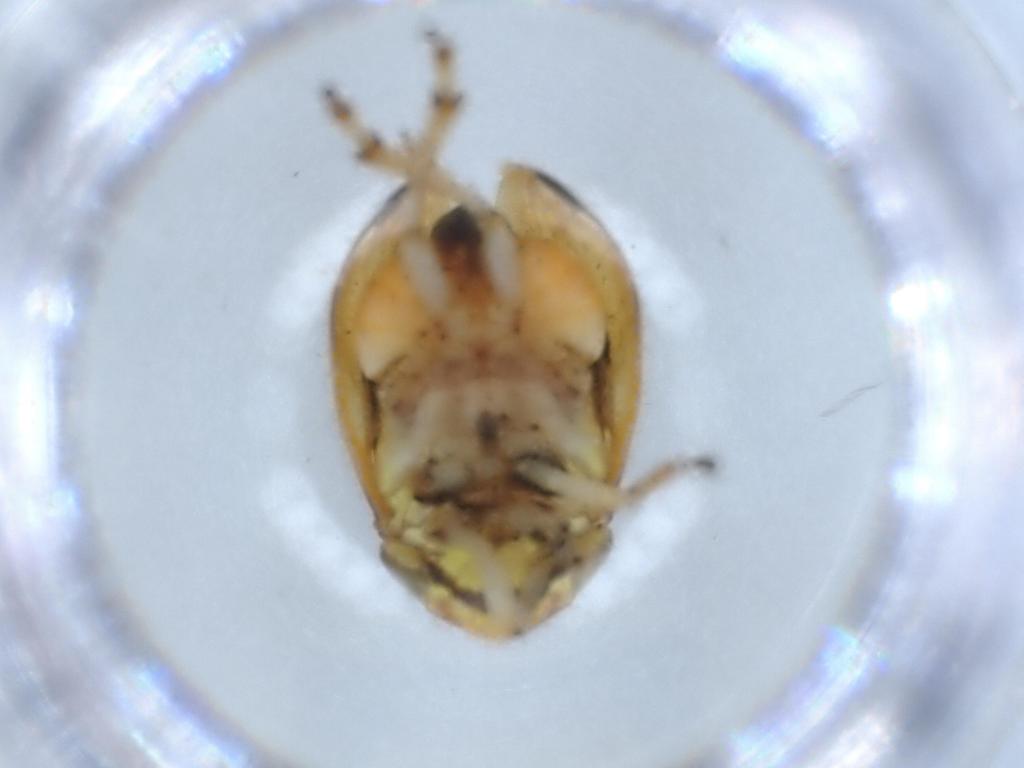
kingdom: Animalia
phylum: Arthropoda
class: Insecta
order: Hemiptera
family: Clastopteridae
